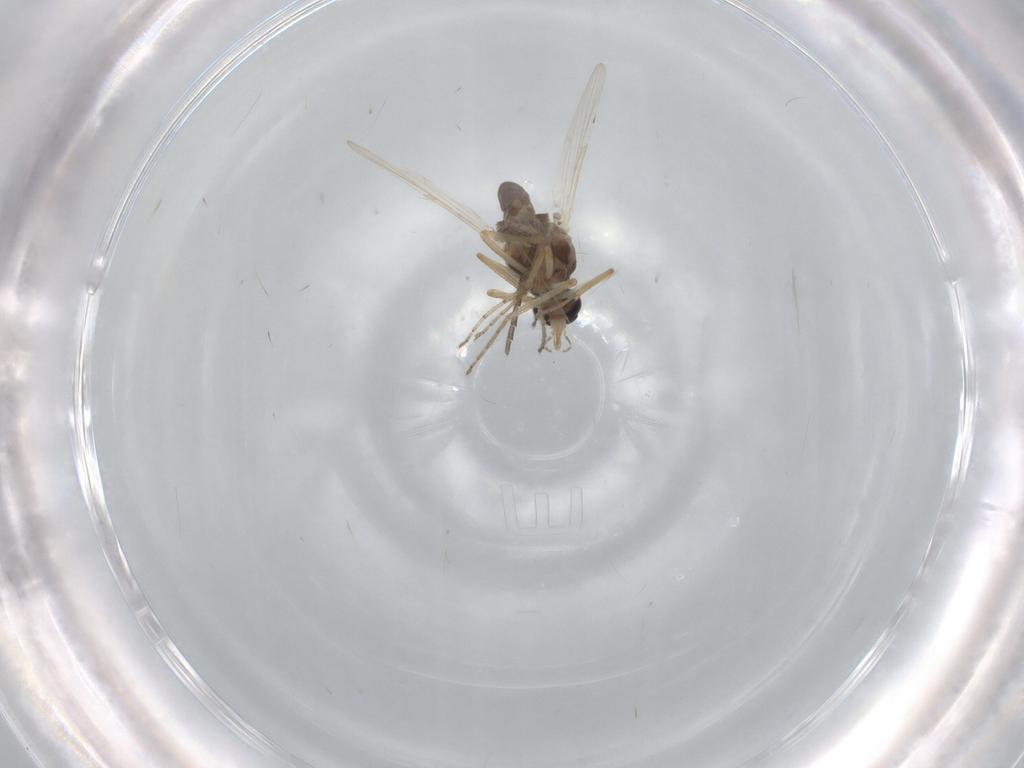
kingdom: Animalia
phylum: Arthropoda
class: Insecta
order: Diptera
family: Ceratopogonidae
